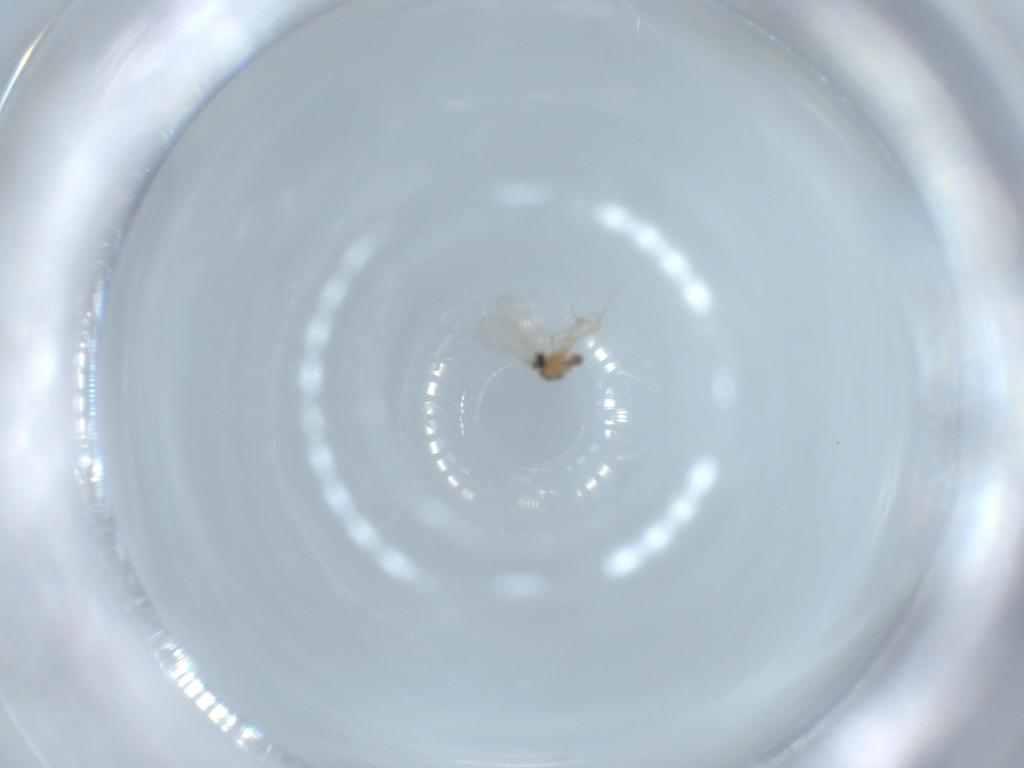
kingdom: Animalia
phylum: Arthropoda
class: Insecta
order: Diptera
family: Cecidomyiidae
